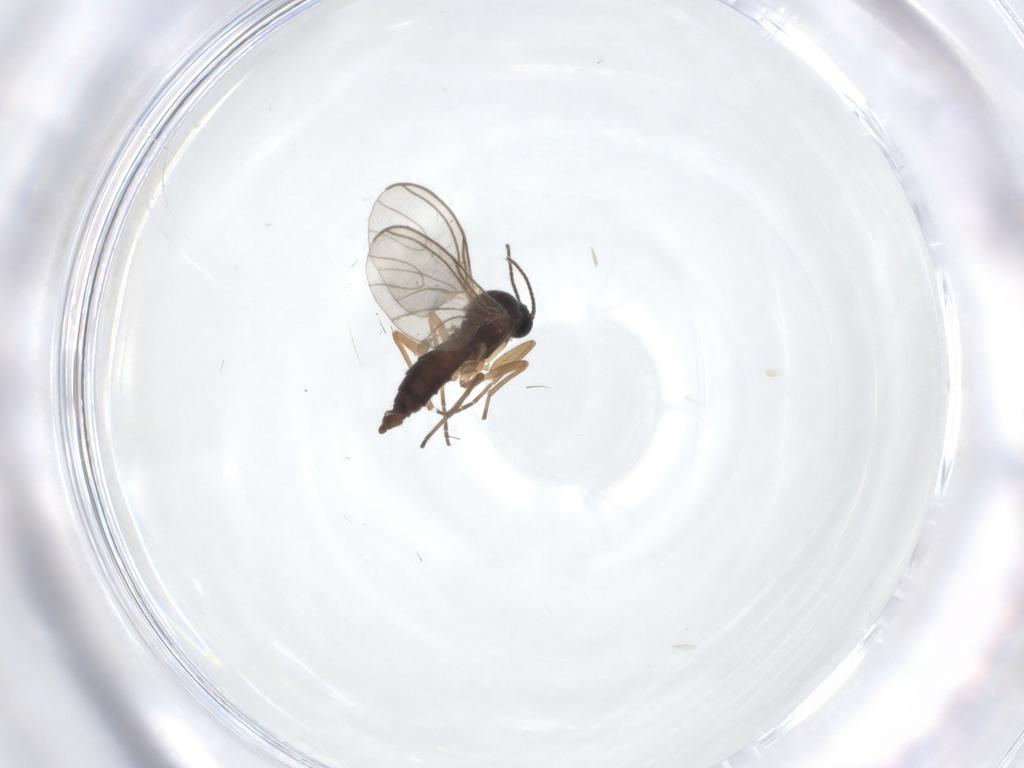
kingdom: Animalia
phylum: Arthropoda
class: Insecta
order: Diptera
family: Sciaridae
